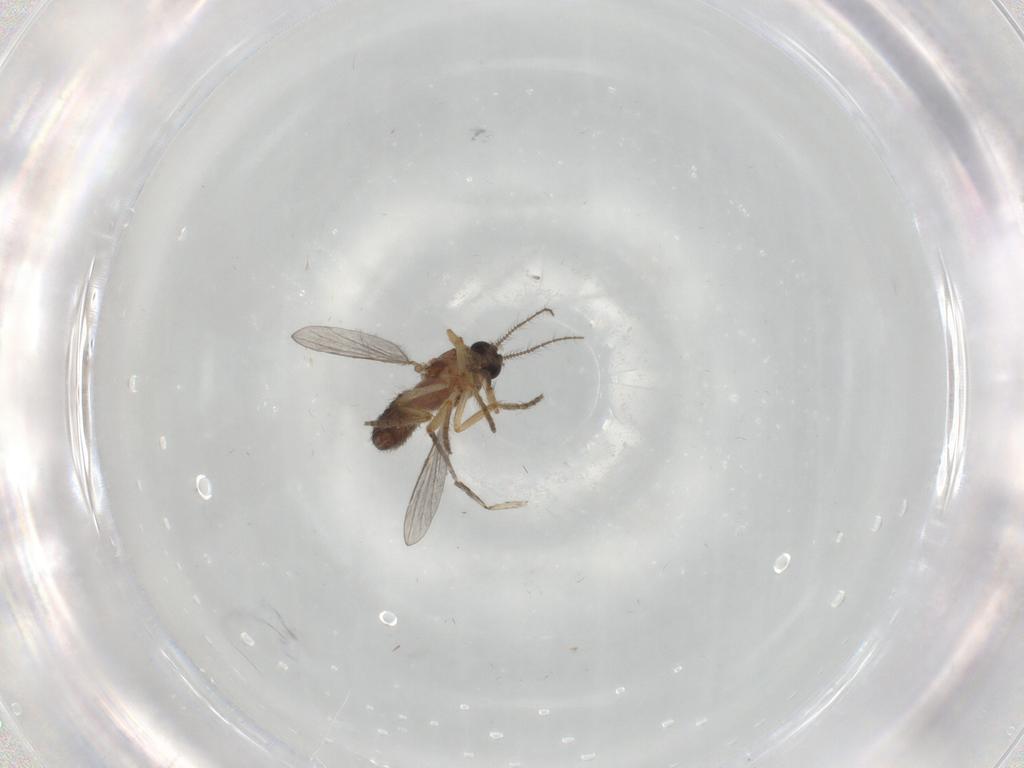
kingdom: Animalia
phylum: Arthropoda
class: Insecta
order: Diptera
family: Ceratopogonidae
